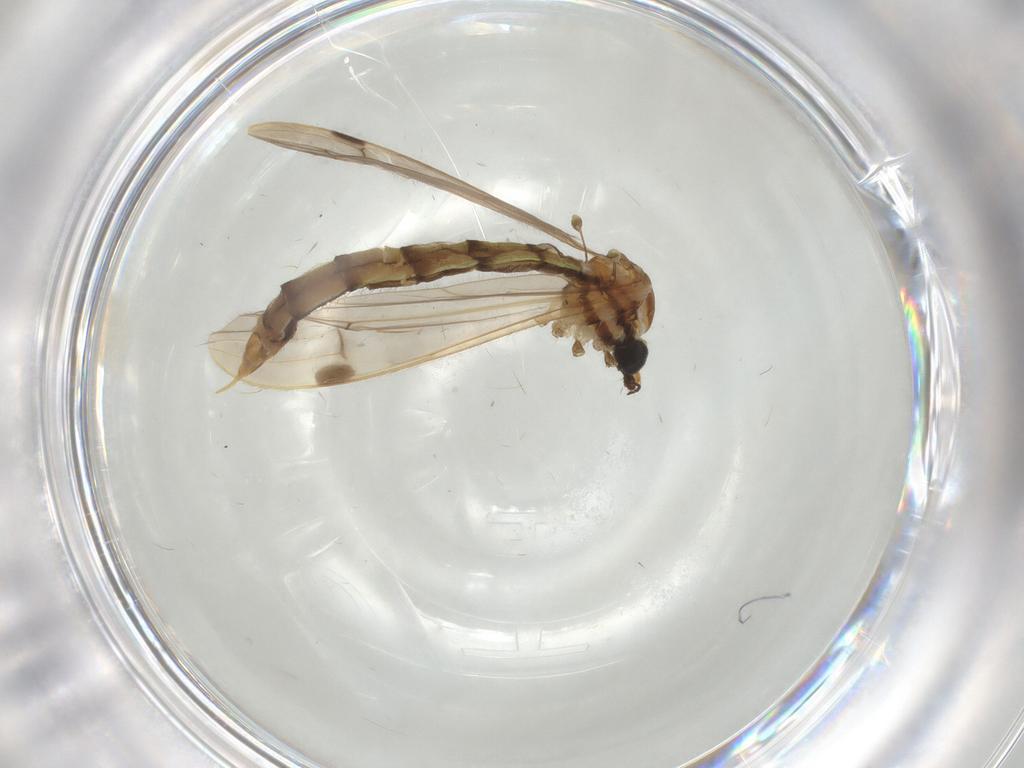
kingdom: Animalia
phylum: Arthropoda
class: Insecta
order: Diptera
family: Limoniidae
